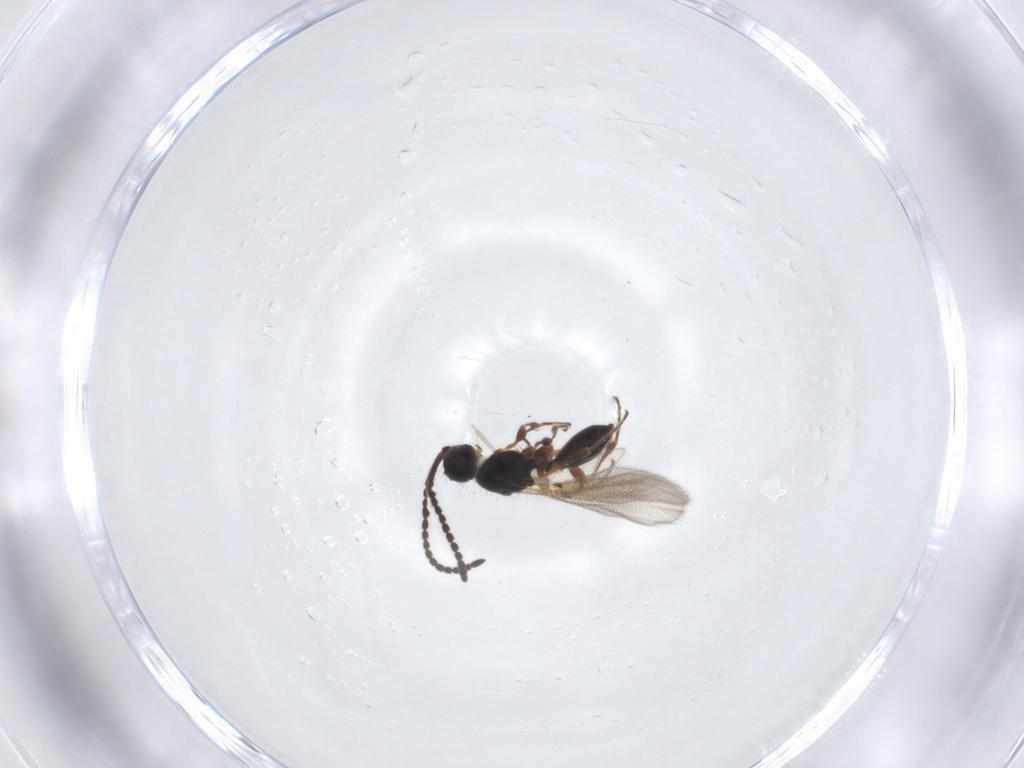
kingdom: Animalia
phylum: Arthropoda
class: Insecta
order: Hymenoptera
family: Diapriidae
